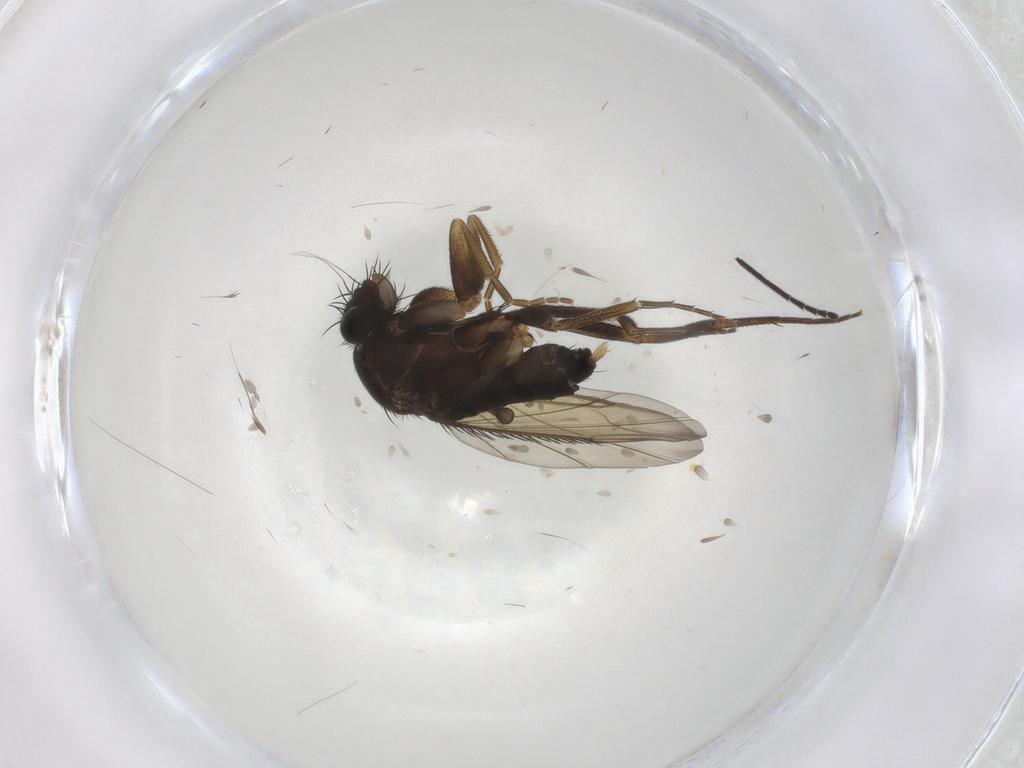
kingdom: Animalia
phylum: Arthropoda
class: Insecta
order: Diptera
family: Phoridae
